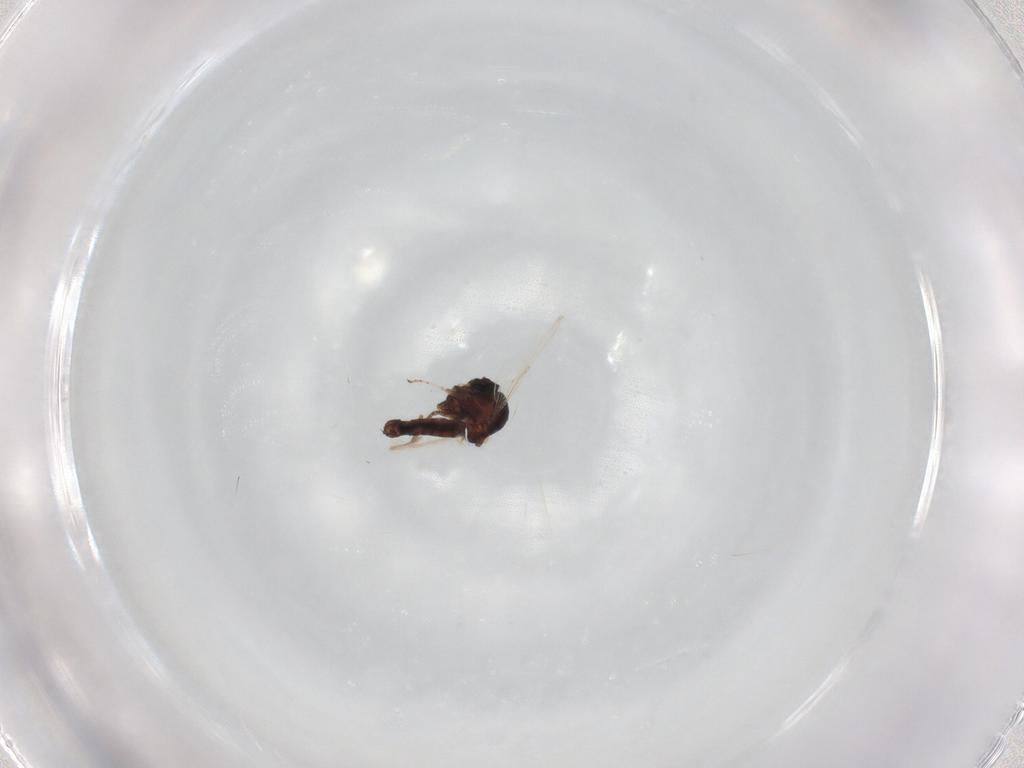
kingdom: Animalia
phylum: Arthropoda
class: Insecta
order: Diptera
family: Ceratopogonidae
